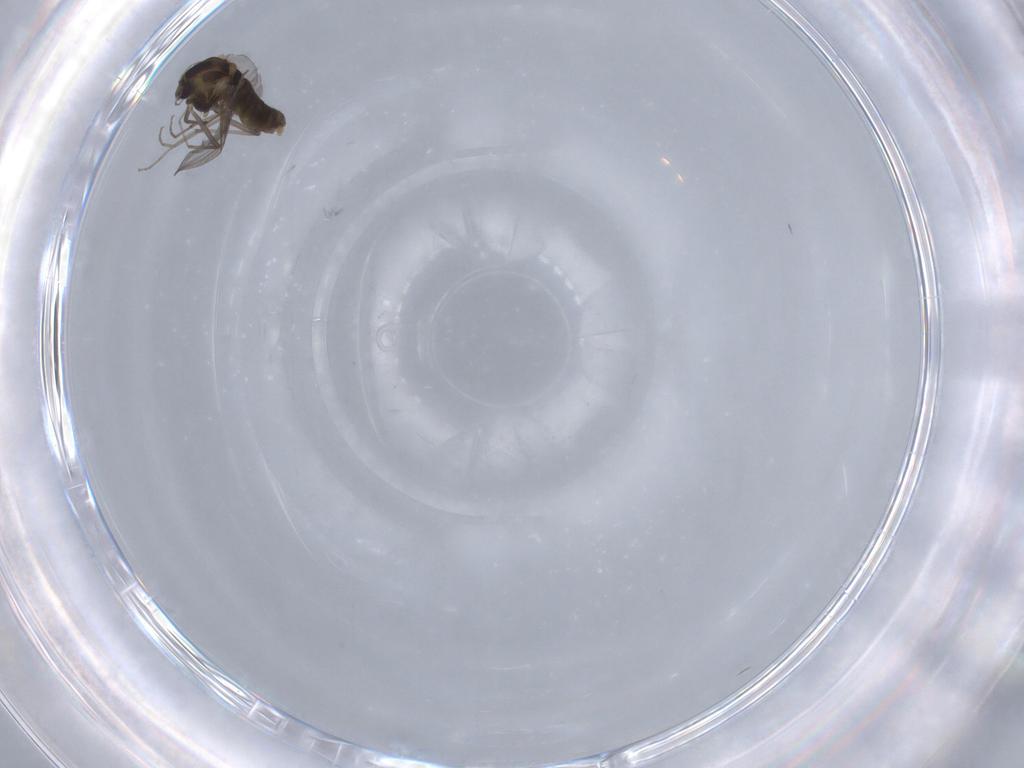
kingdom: Animalia
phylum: Arthropoda
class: Insecta
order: Diptera
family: Chironomidae
